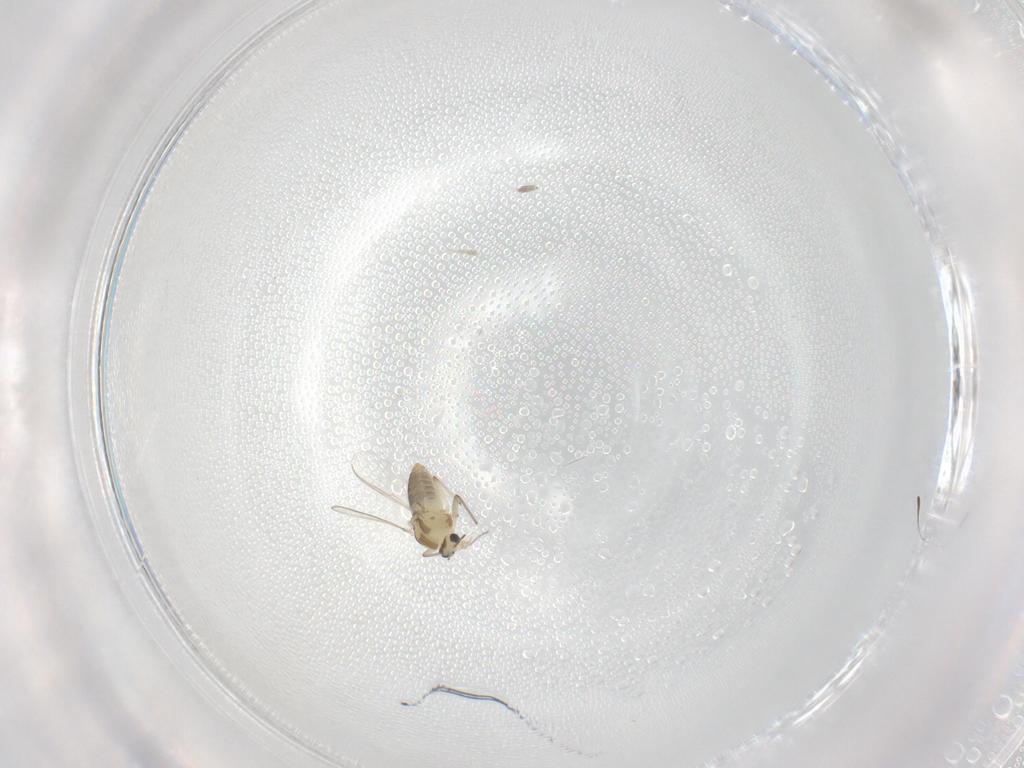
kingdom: Animalia
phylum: Arthropoda
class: Insecta
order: Diptera
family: Chironomidae
